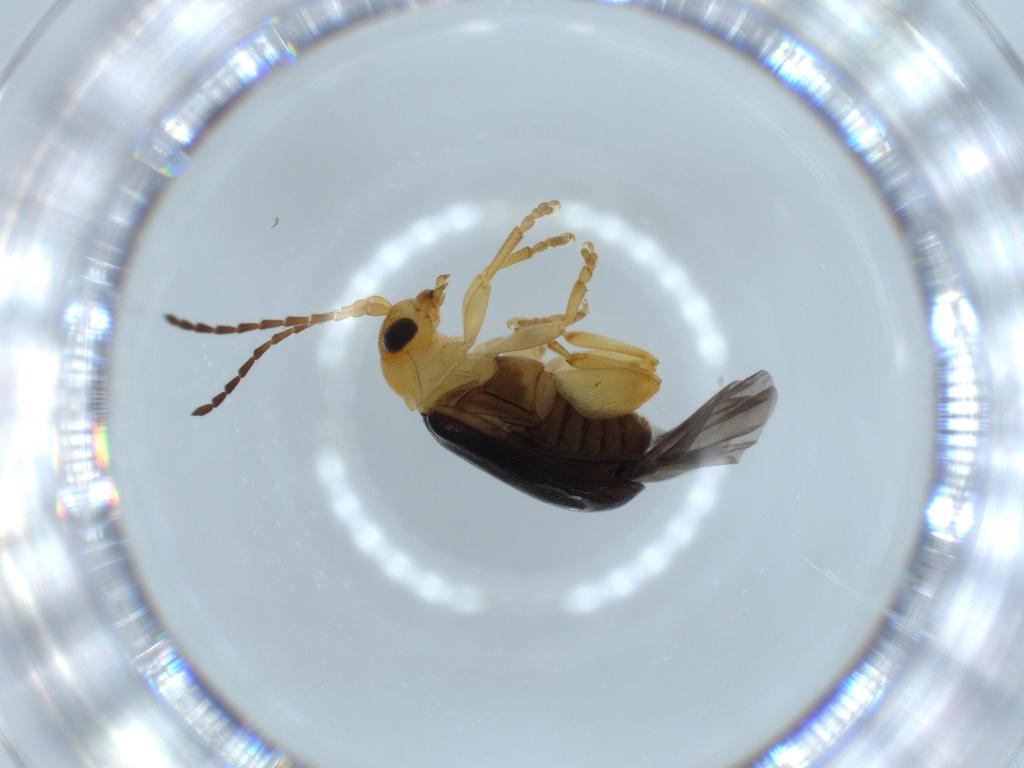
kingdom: Animalia
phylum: Arthropoda
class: Insecta
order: Coleoptera
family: Chrysomelidae
